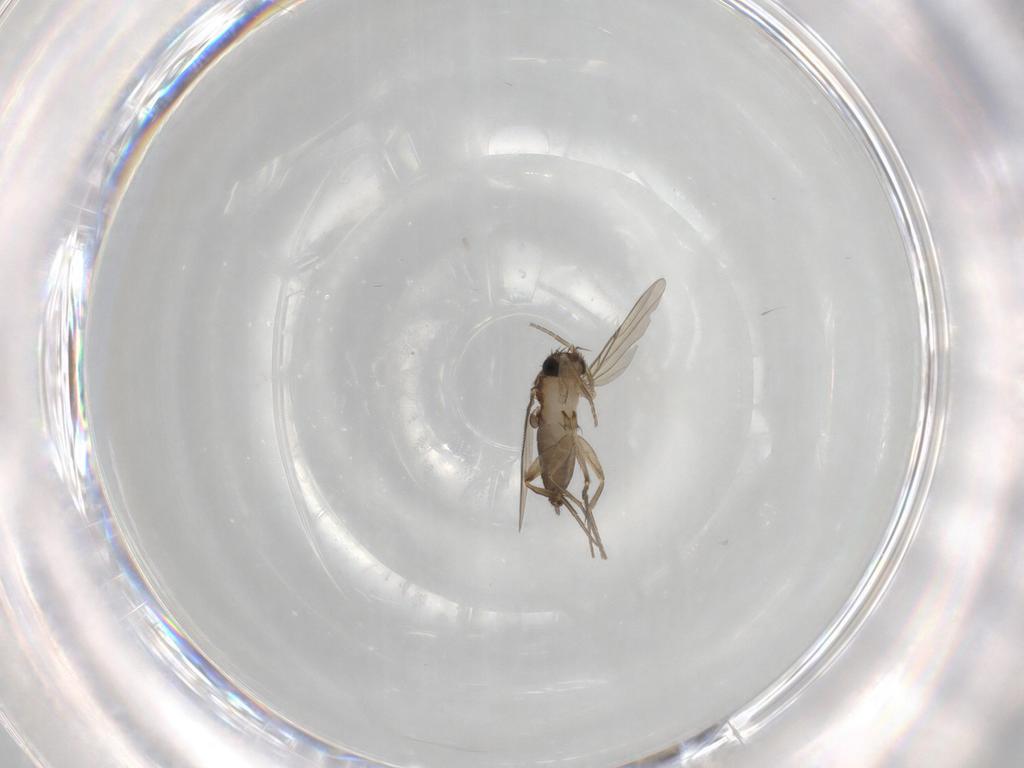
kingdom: Animalia
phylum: Arthropoda
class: Insecta
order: Diptera
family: Phoridae
